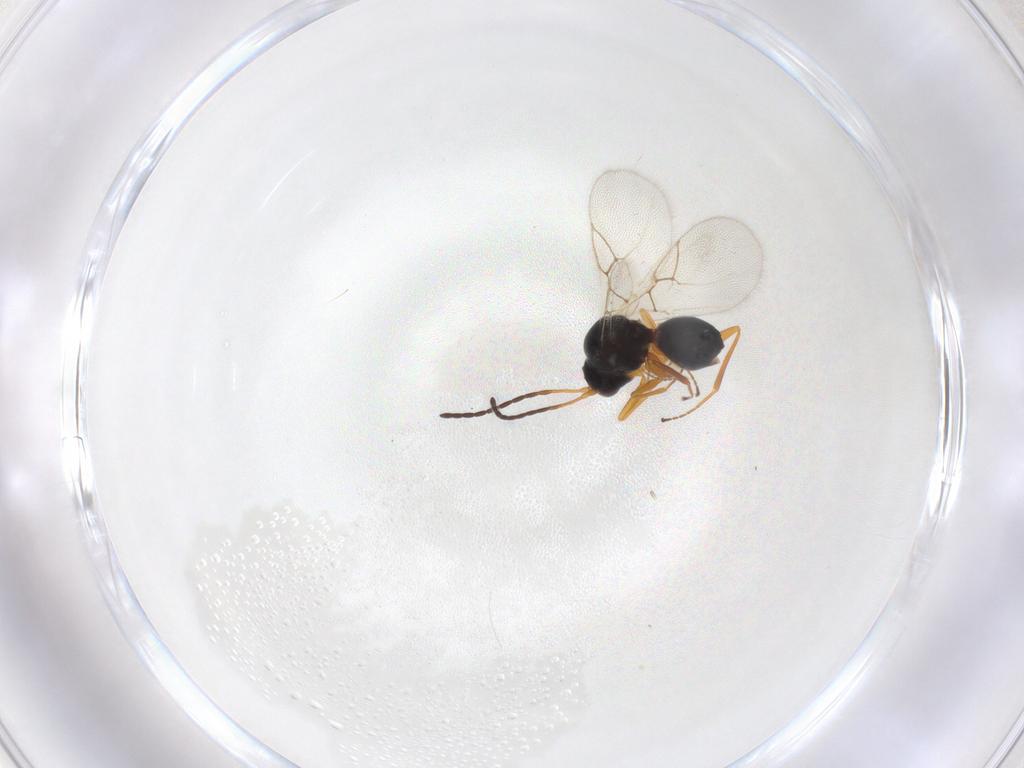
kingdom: Animalia
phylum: Arthropoda
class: Insecta
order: Hymenoptera
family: Figitidae
